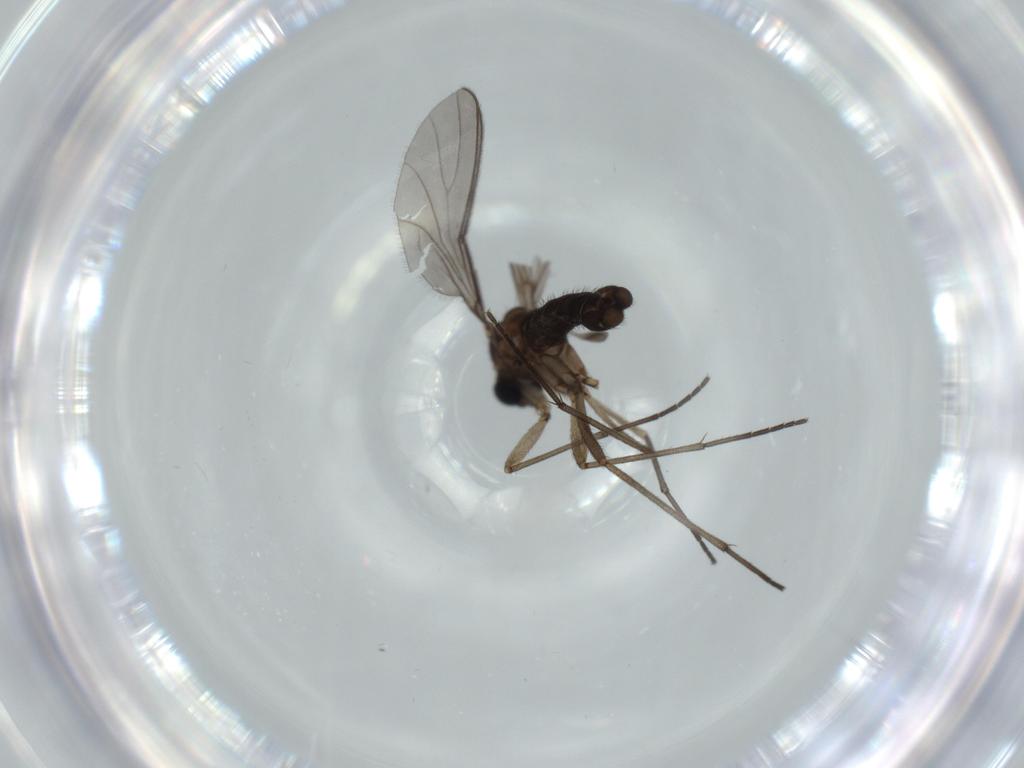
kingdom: Animalia
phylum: Arthropoda
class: Insecta
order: Diptera
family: Sciaridae
